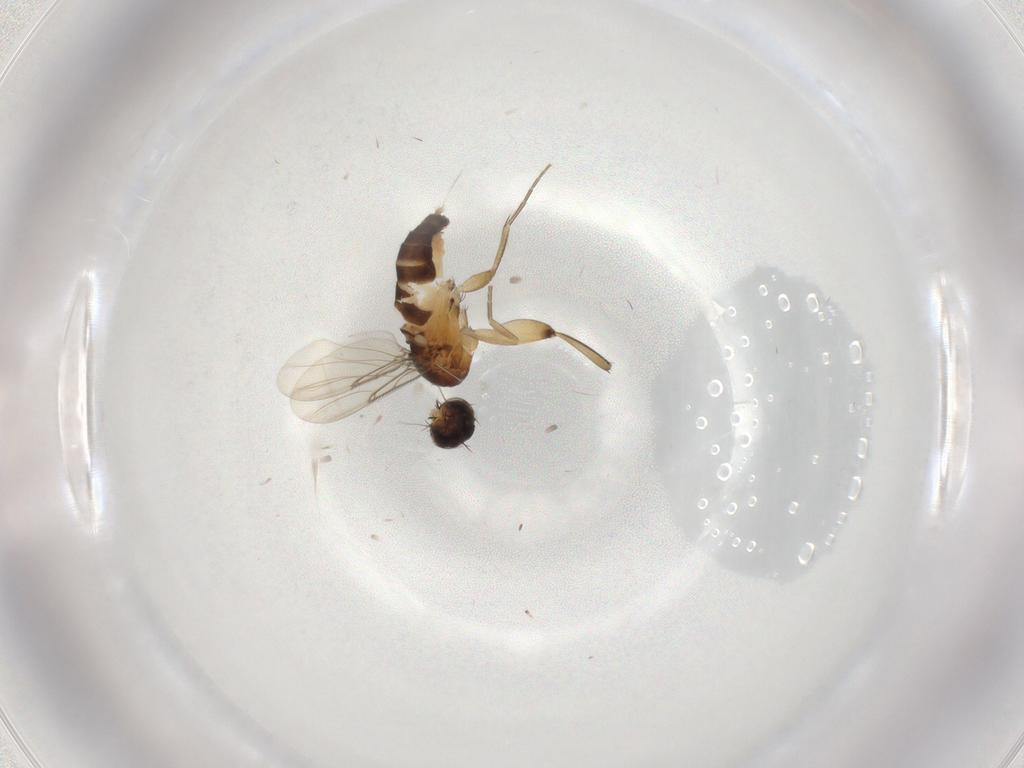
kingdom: Animalia
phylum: Arthropoda
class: Insecta
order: Diptera
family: Phoridae
